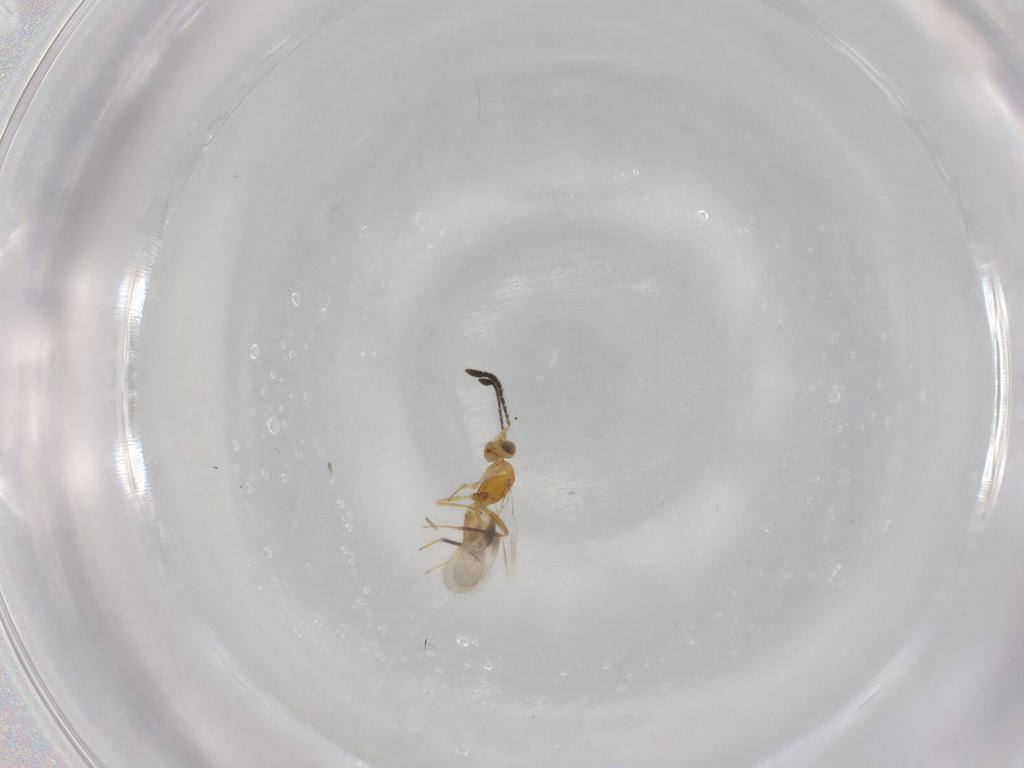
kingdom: Animalia
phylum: Arthropoda
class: Insecta
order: Hymenoptera
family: Mymaridae
